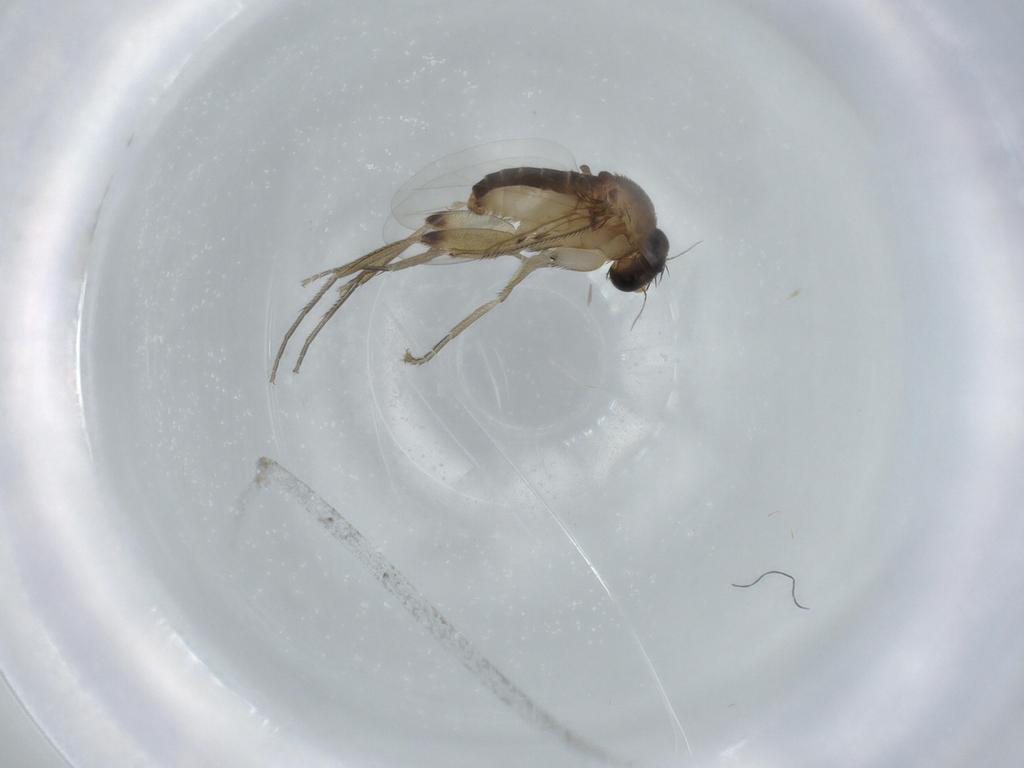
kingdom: Animalia
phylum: Arthropoda
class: Insecta
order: Diptera
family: Phoridae
